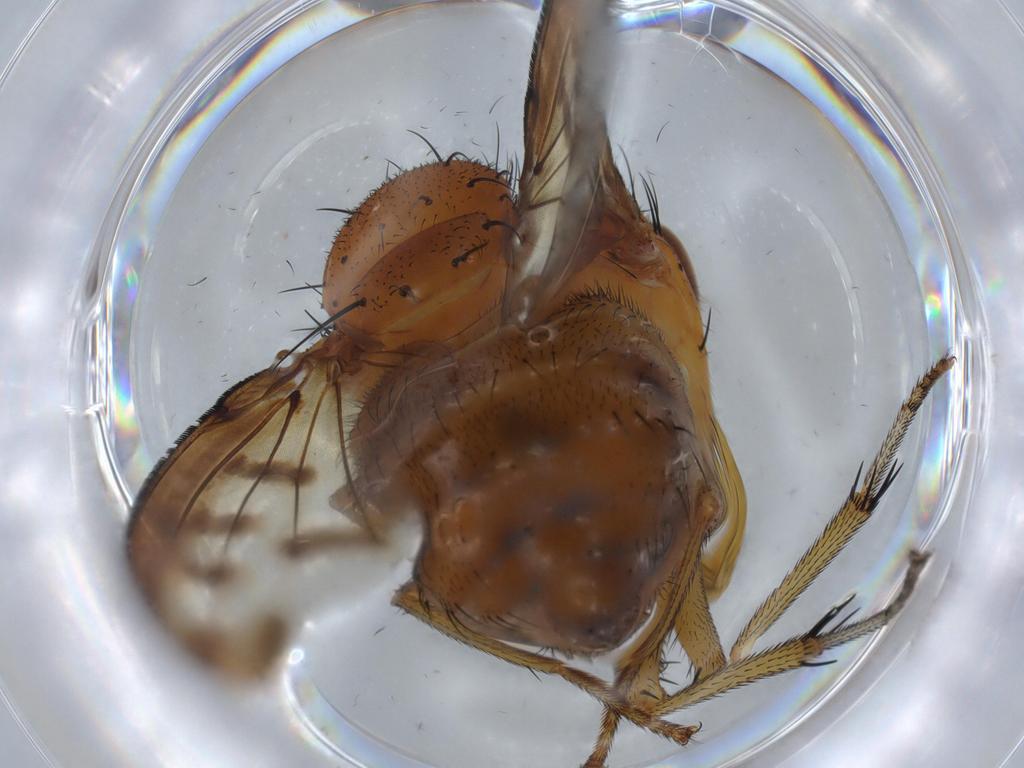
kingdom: Animalia
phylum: Arthropoda
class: Insecta
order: Diptera
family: Lauxaniidae
